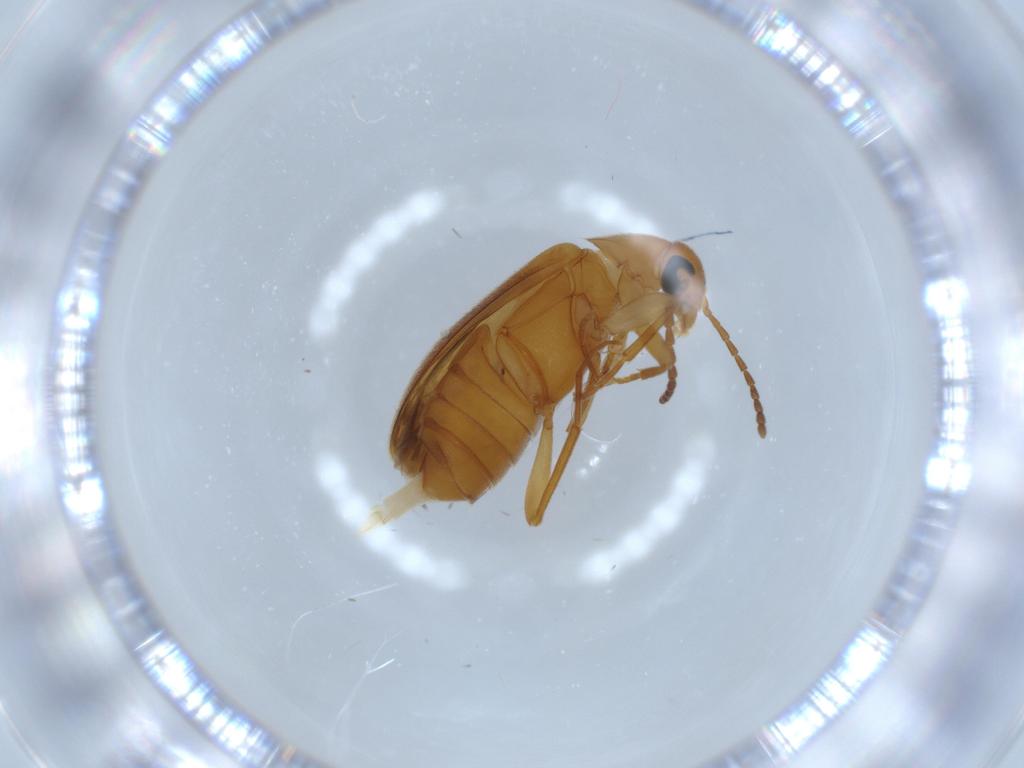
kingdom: Animalia
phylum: Arthropoda
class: Insecta
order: Coleoptera
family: Scraptiidae
